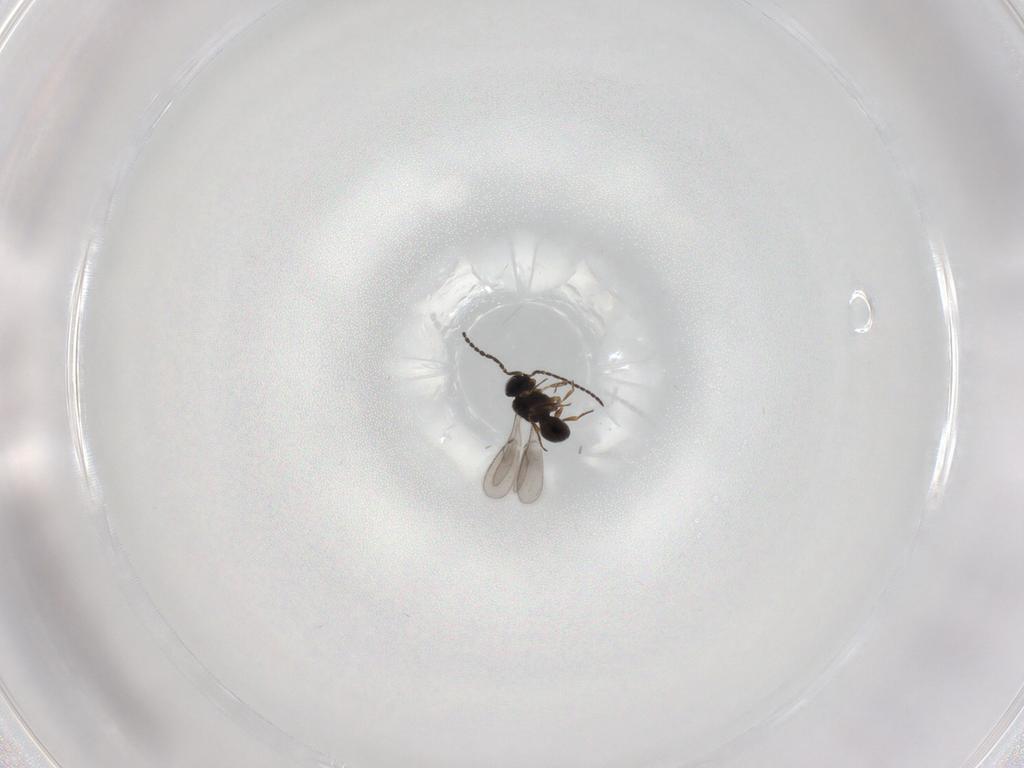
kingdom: Animalia
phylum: Arthropoda
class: Insecta
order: Hymenoptera
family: Scelionidae
